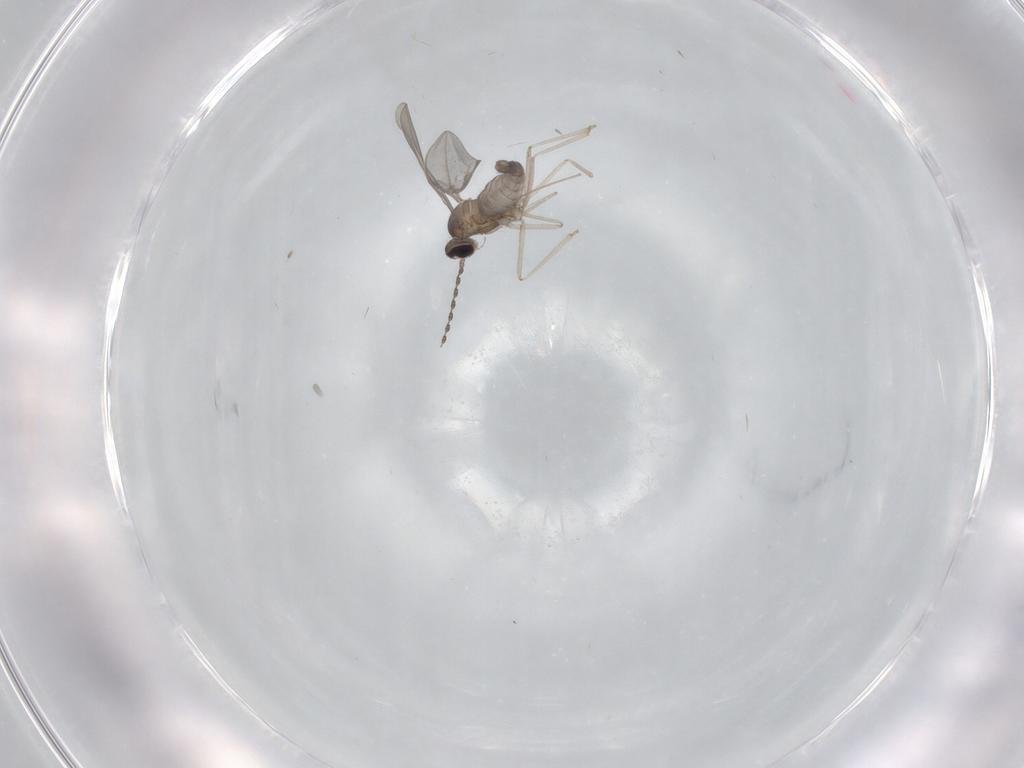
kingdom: Animalia
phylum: Arthropoda
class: Insecta
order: Diptera
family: Cecidomyiidae
